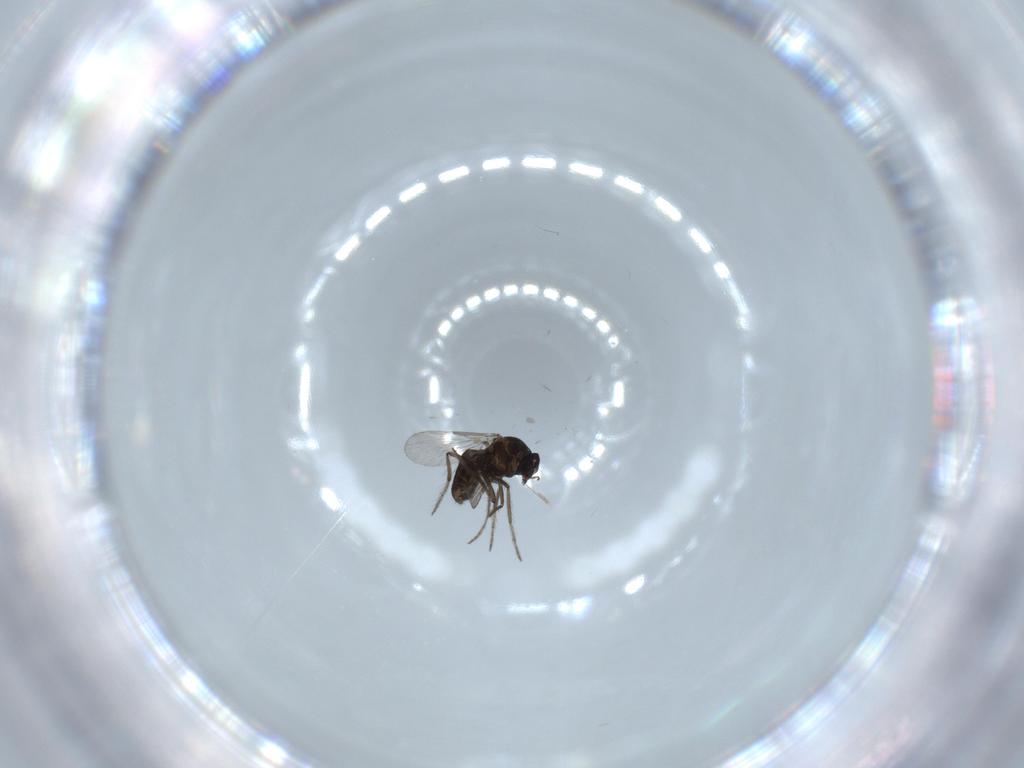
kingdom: Animalia
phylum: Arthropoda
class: Insecta
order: Diptera
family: Ceratopogonidae
